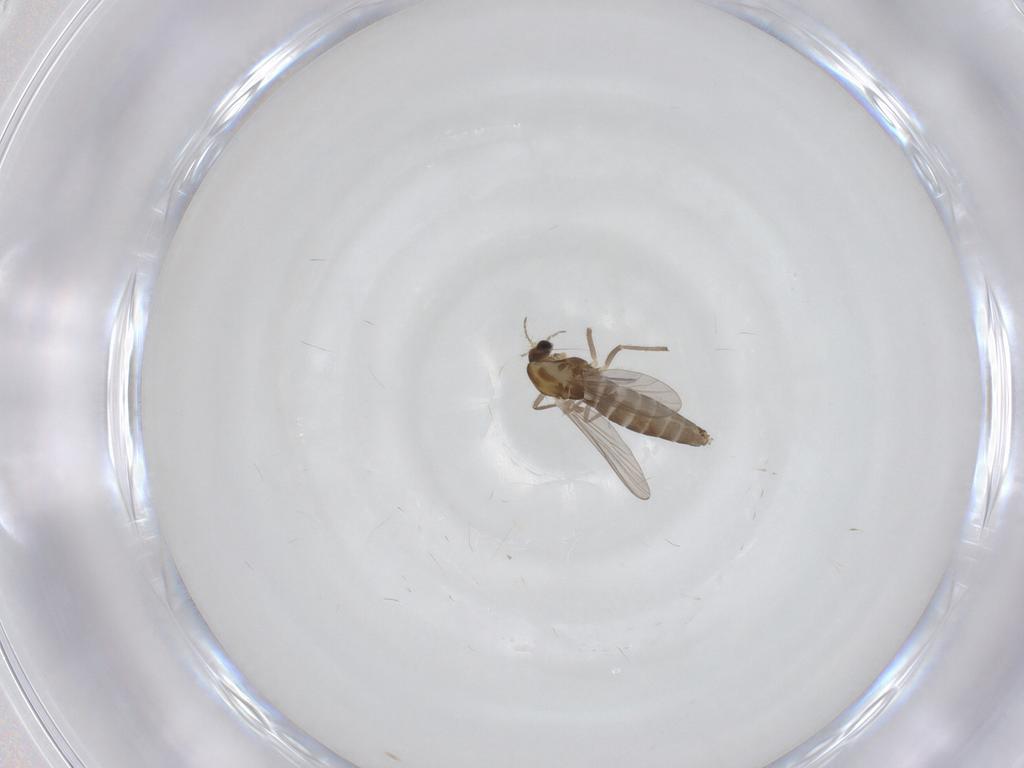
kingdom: Animalia
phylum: Arthropoda
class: Insecta
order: Diptera
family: Chironomidae
